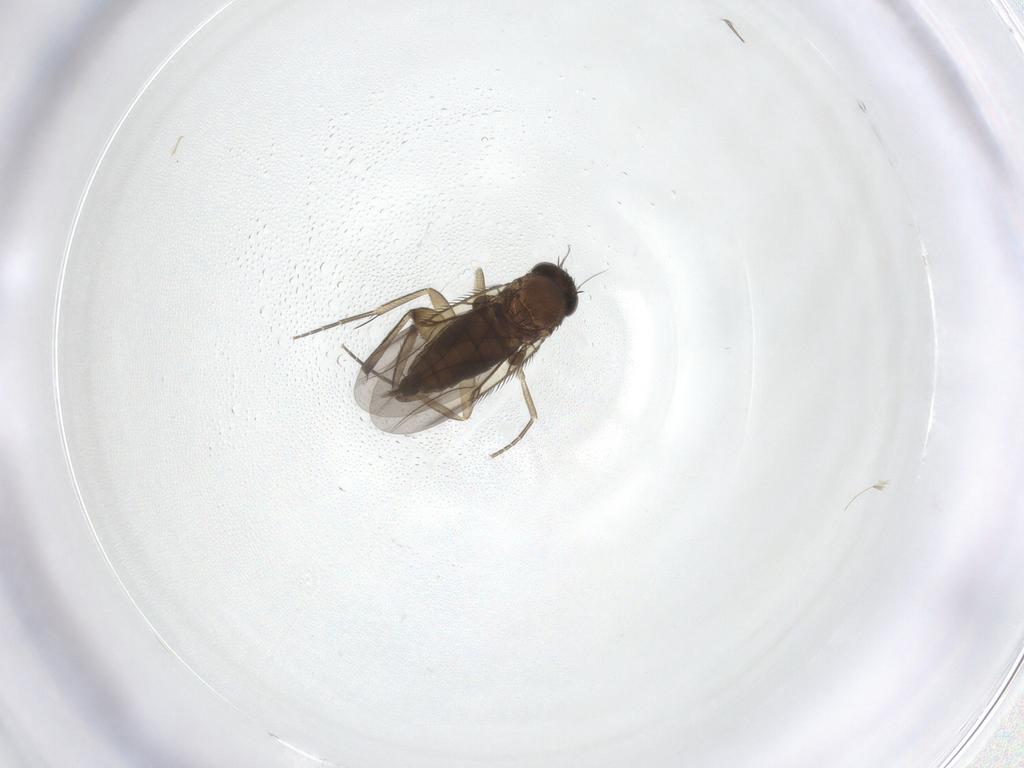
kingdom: Animalia
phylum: Arthropoda
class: Insecta
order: Diptera
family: Phoridae
